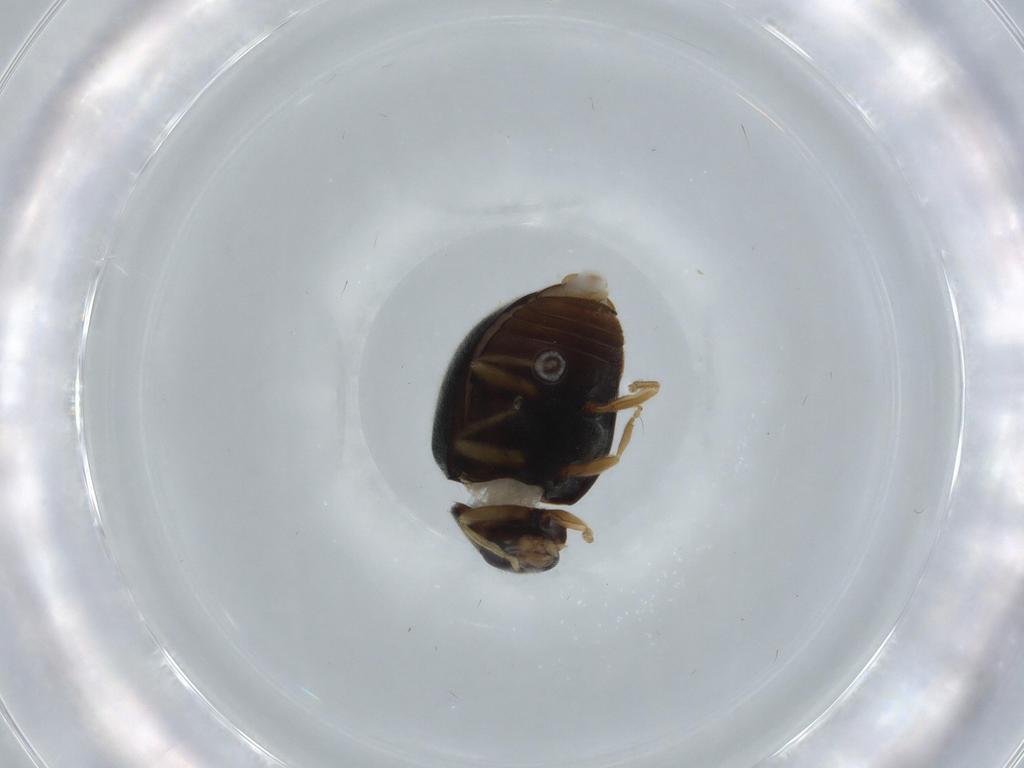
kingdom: Animalia
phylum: Arthropoda
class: Insecta
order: Coleoptera
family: Coccinellidae
